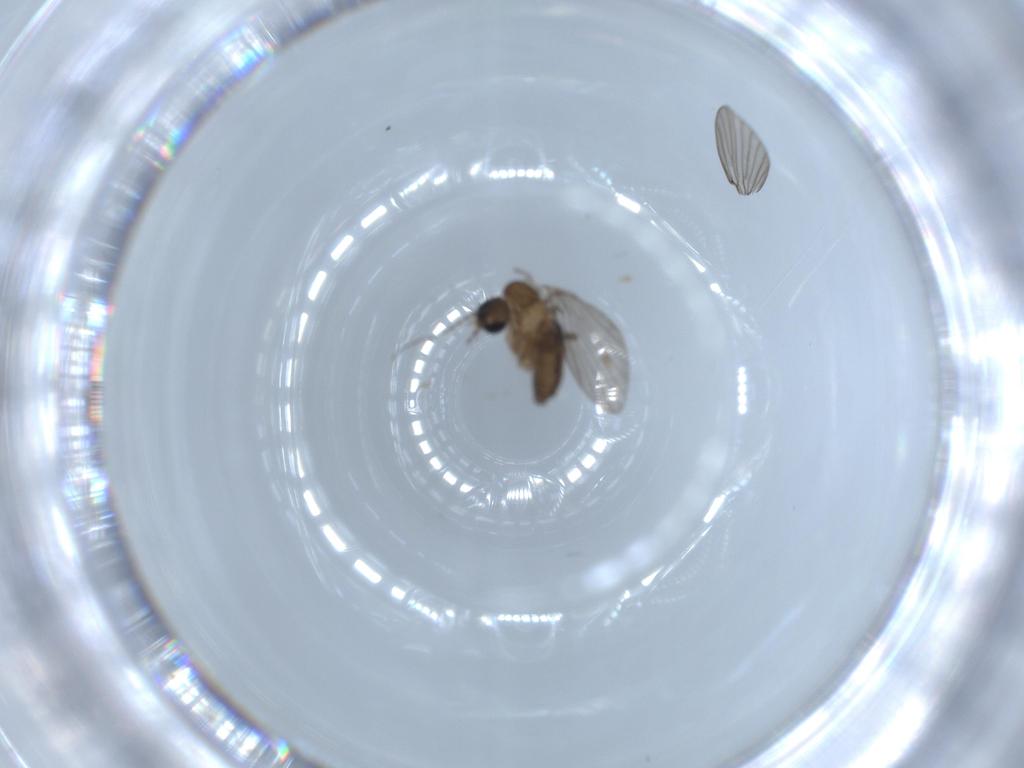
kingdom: Animalia
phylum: Arthropoda
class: Insecta
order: Diptera
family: Psychodidae
